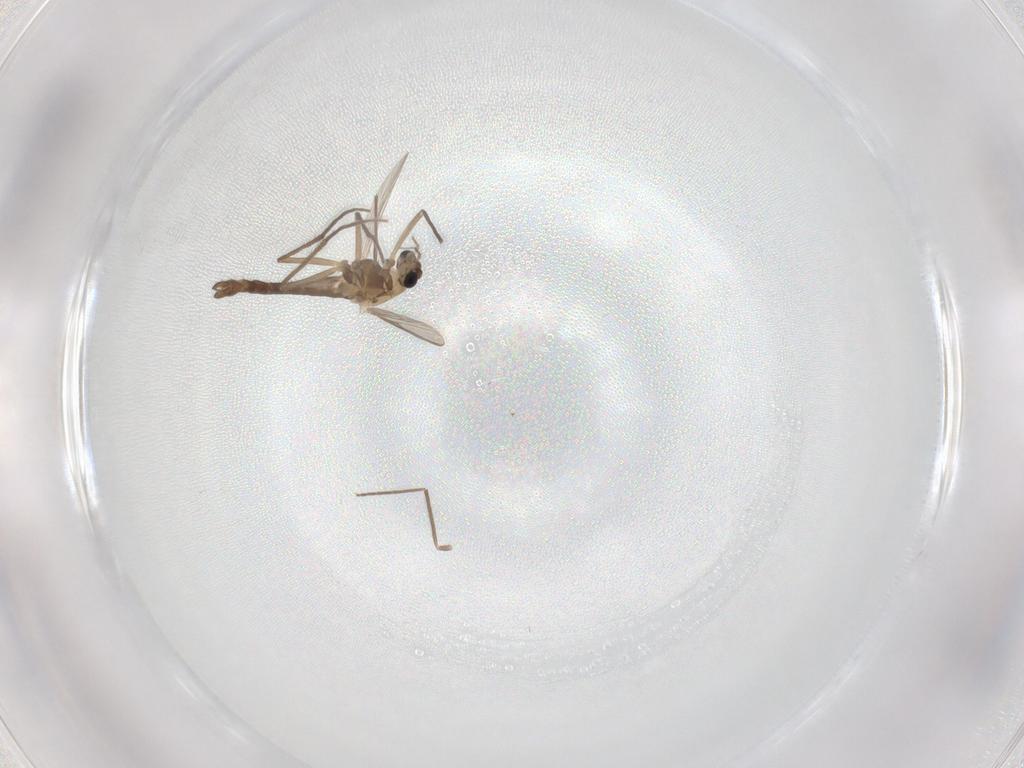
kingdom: Animalia
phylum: Arthropoda
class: Insecta
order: Diptera
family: Chironomidae
